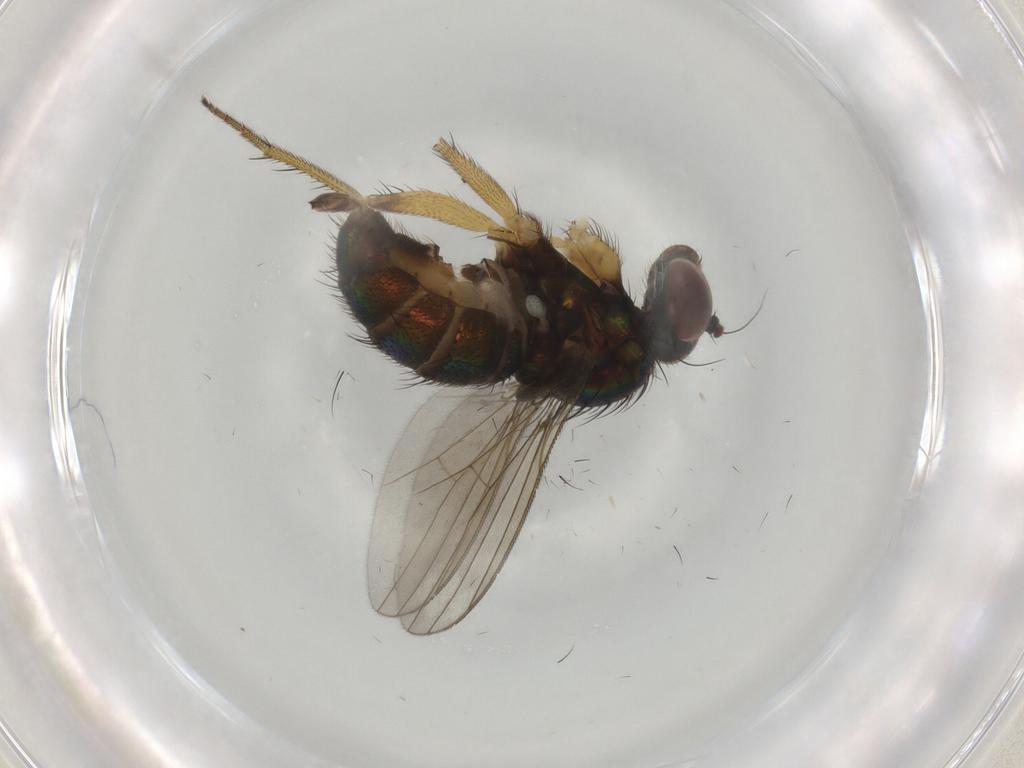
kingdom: Animalia
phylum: Arthropoda
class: Insecta
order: Diptera
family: Dolichopodidae
